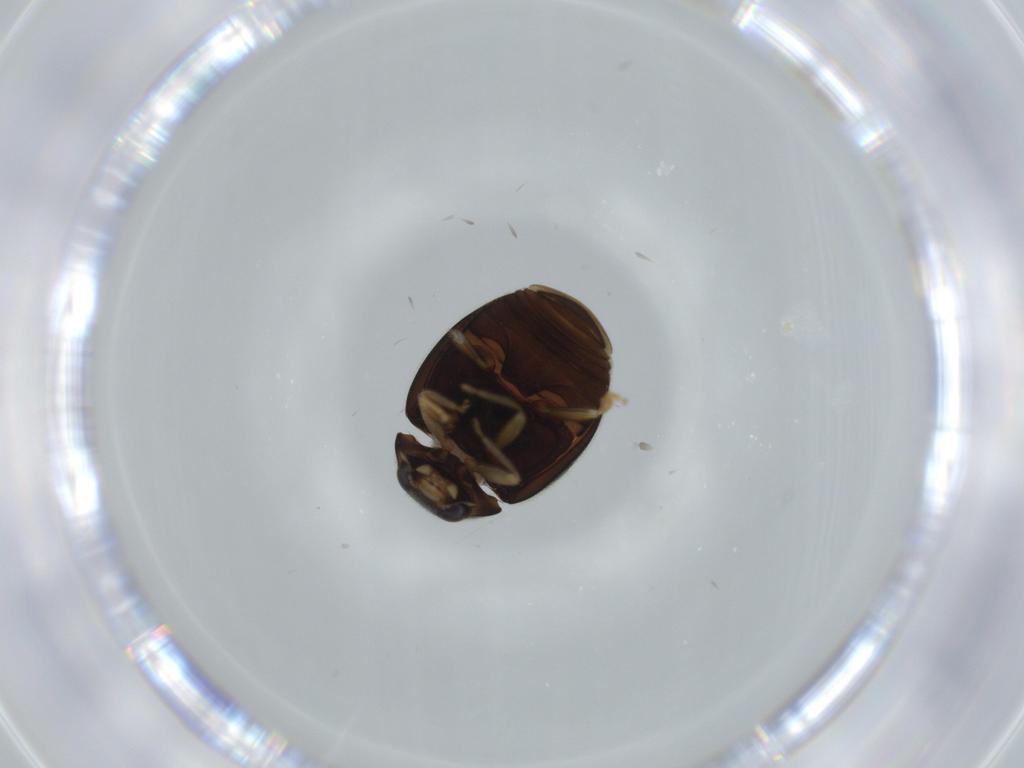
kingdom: Animalia
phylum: Arthropoda
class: Insecta
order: Coleoptera
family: Coccinellidae
